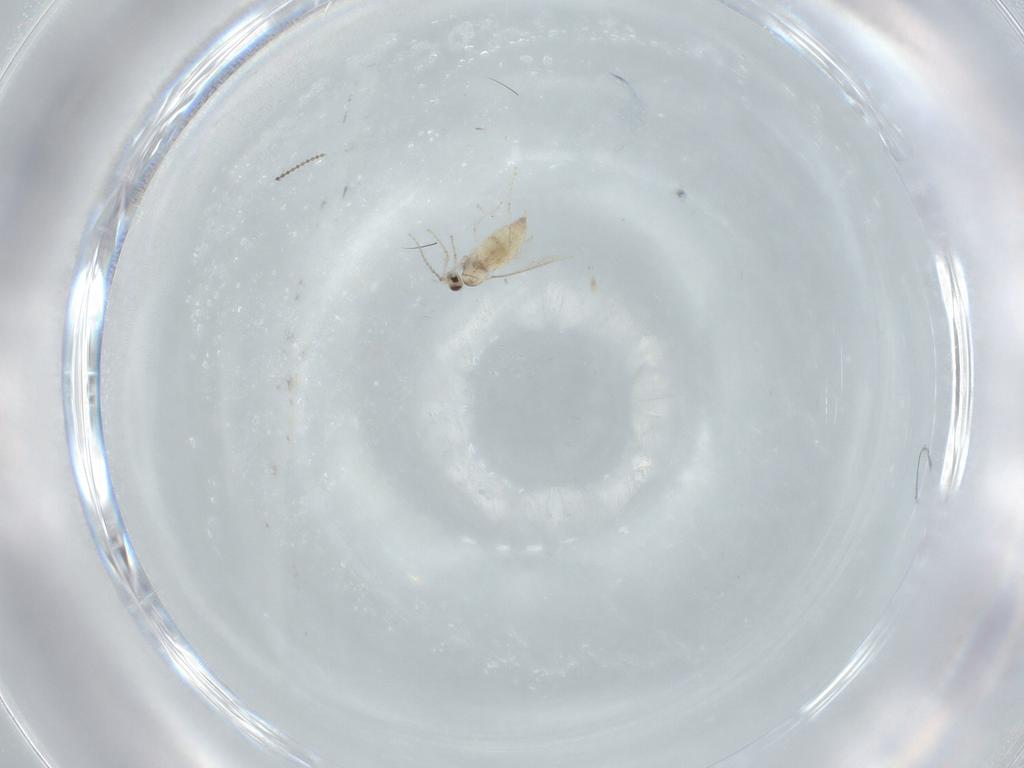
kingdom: Animalia
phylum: Arthropoda
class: Insecta
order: Diptera
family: Cecidomyiidae
